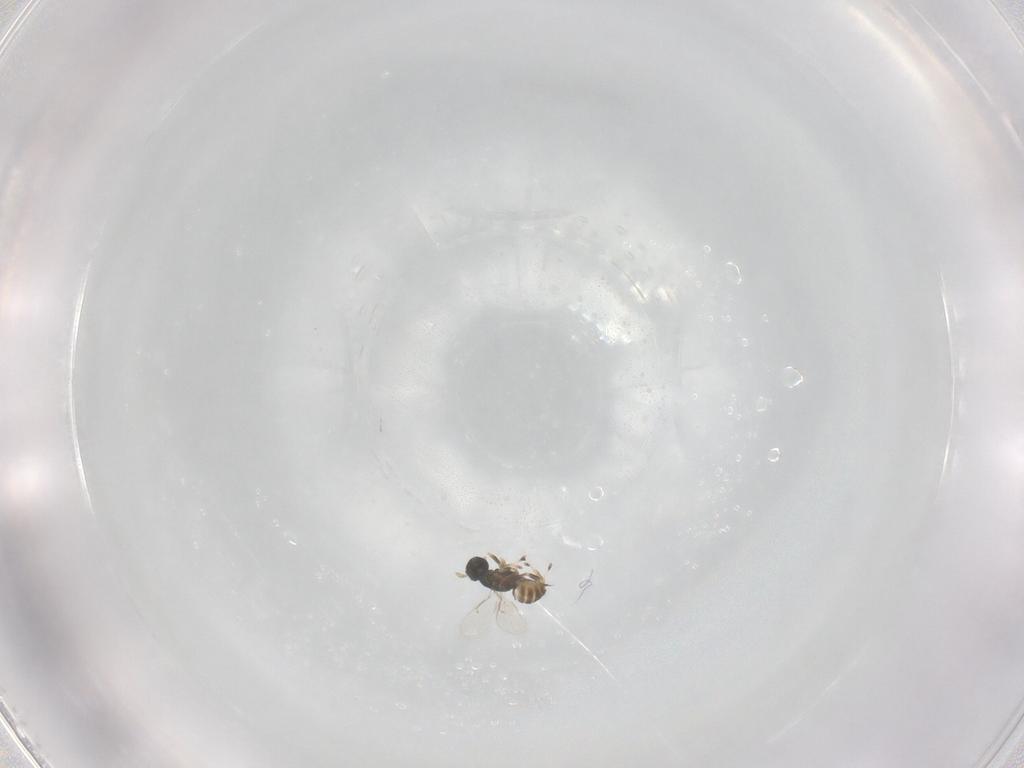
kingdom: Animalia
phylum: Arthropoda
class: Insecta
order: Hymenoptera
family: Eulophidae
